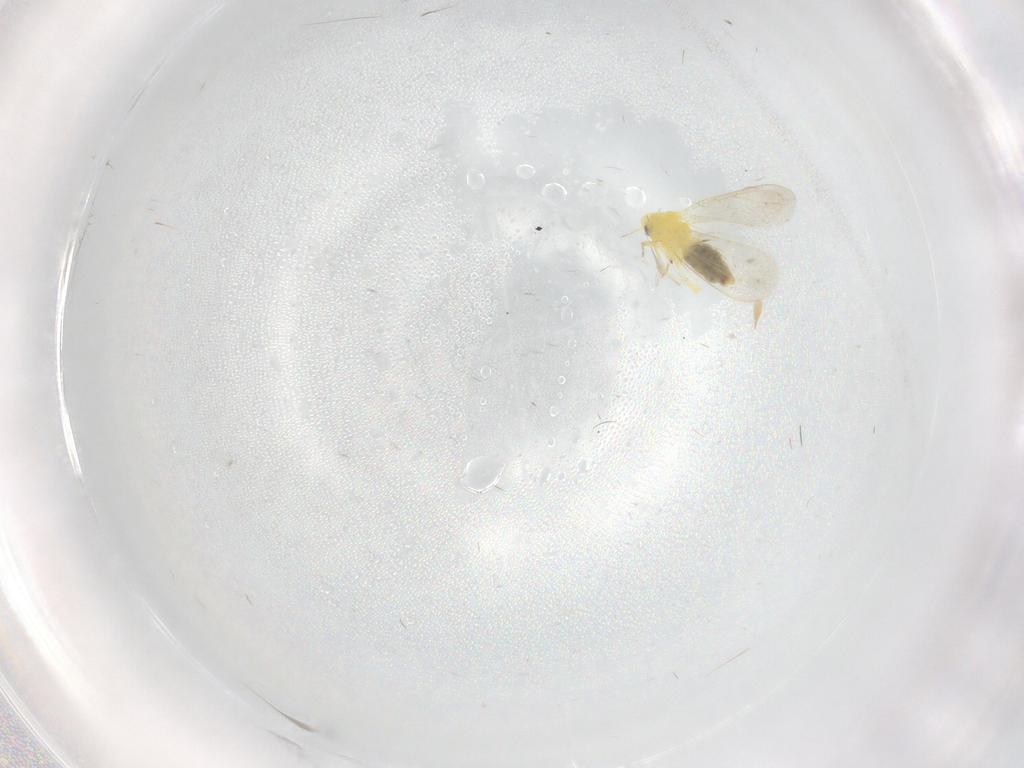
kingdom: Animalia
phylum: Arthropoda
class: Insecta
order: Hemiptera
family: Aleyrodidae
